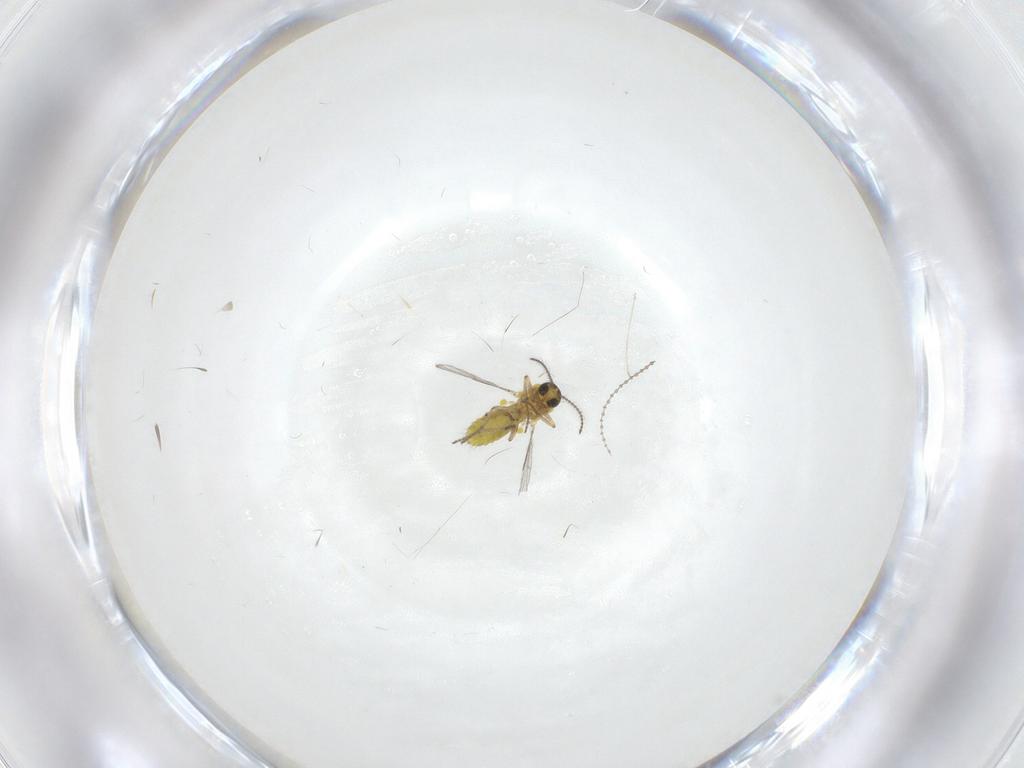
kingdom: Animalia
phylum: Arthropoda
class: Insecta
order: Diptera
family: Cecidomyiidae
